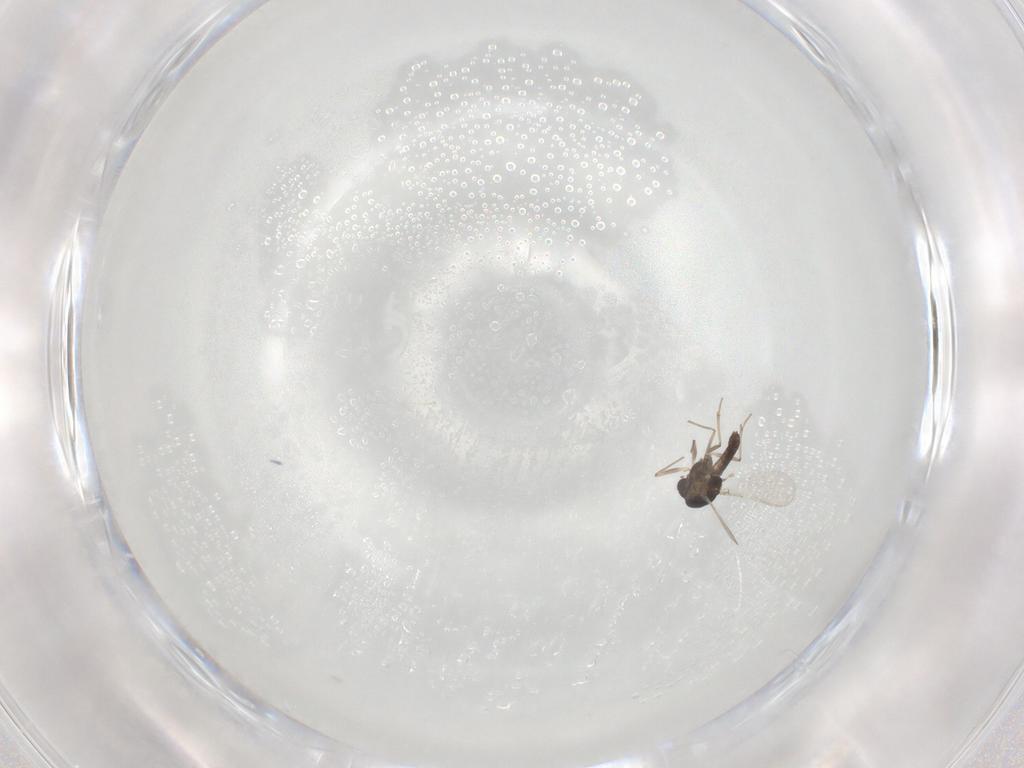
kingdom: Animalia
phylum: Arthropoda
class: Insecta
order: Diptera
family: Chironomidae
